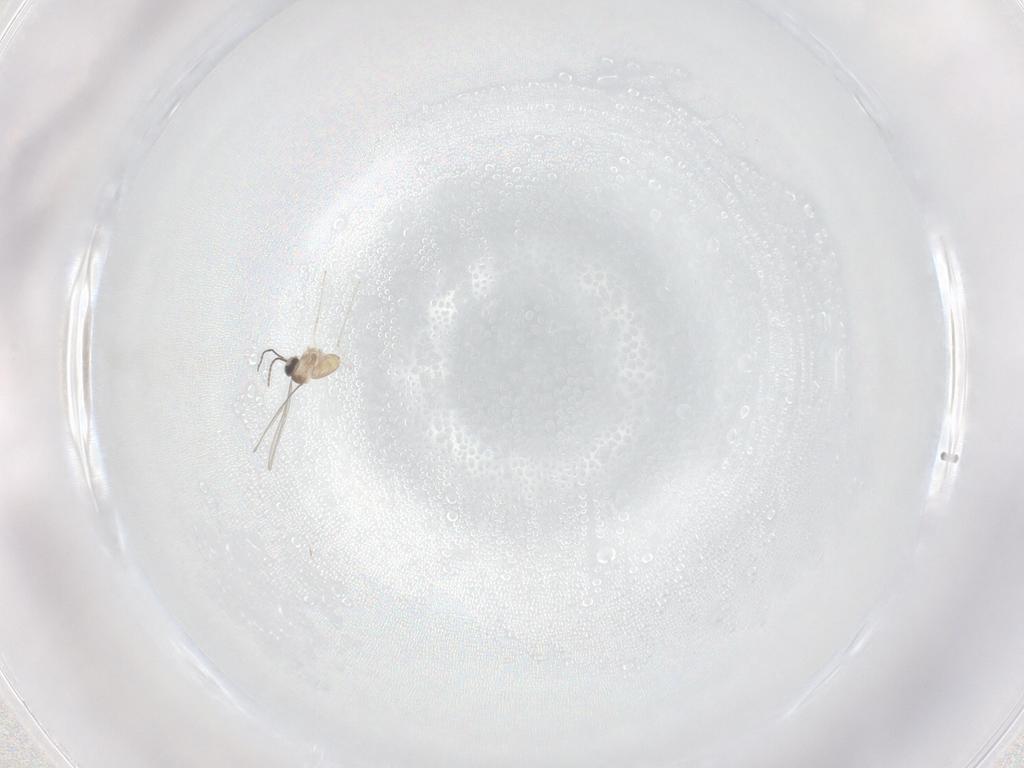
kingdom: Animalia
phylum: Arthropoda
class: Insecta
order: Diptera
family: Cecidomyiidae
